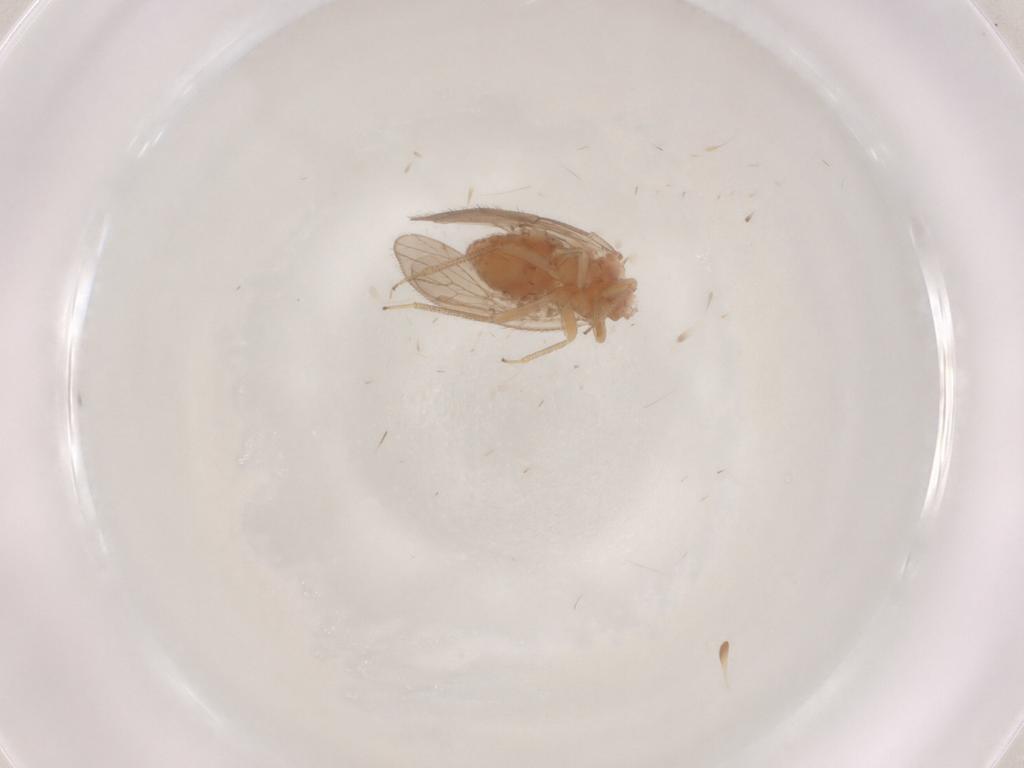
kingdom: Animalia
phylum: Arthropoda
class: Insecta
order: Psocodea
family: Ectopsocidae
